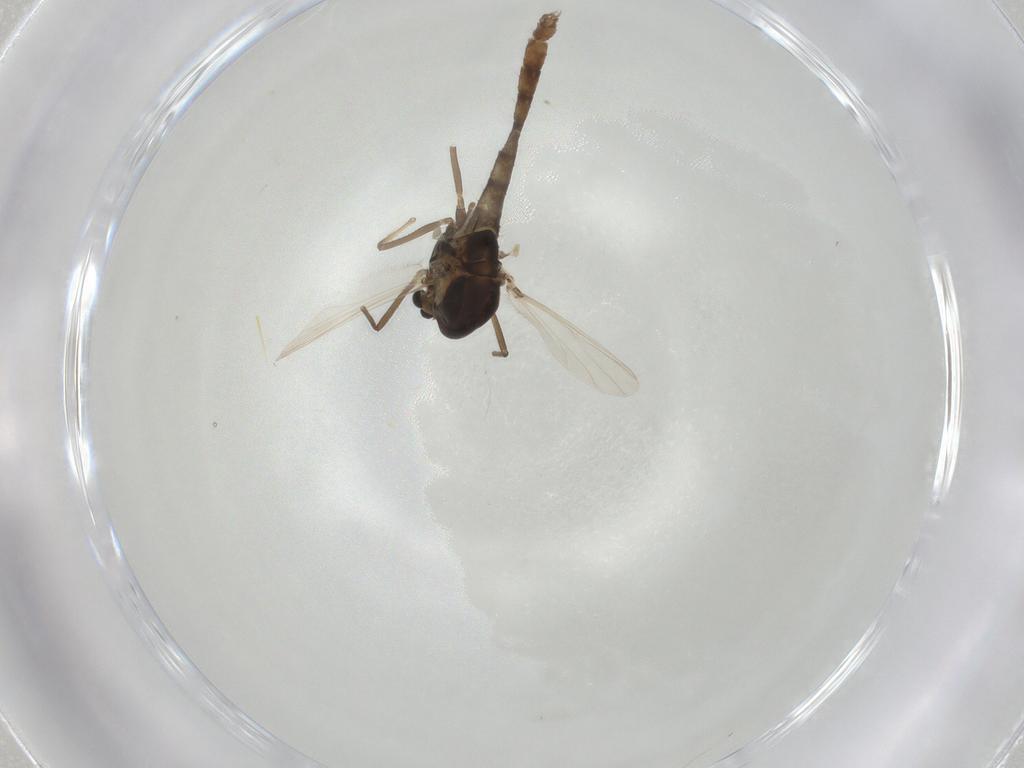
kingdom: Animalia
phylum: Arthropoda
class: Insecta
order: Diptera
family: Chironomidae
